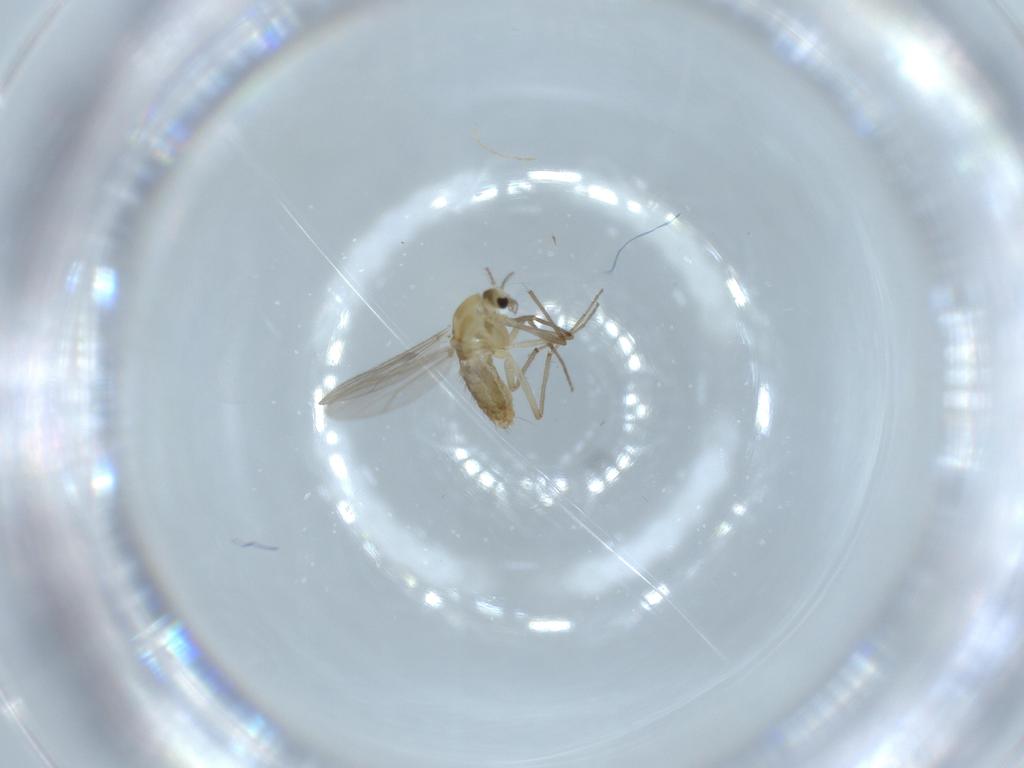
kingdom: Animalia
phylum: Arthropoda
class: Insecta
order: Diptera
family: Chironomidae
